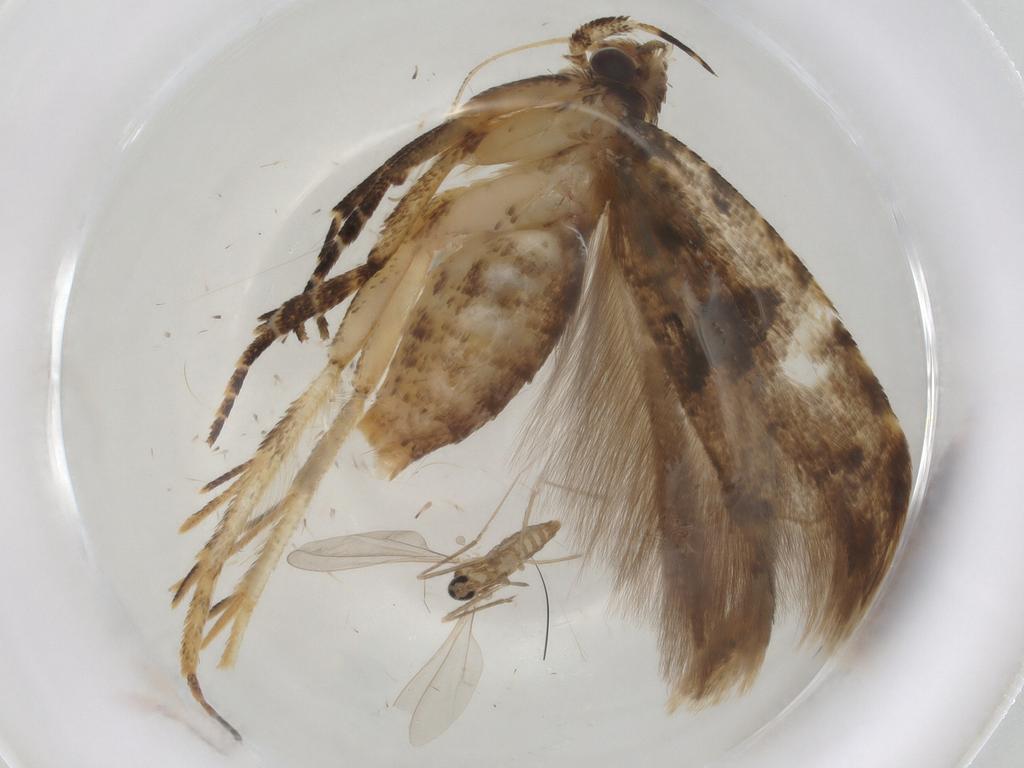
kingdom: Animalia
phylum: Arthropoda
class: Insecta
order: Lepidoptera
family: Gelechiidae
